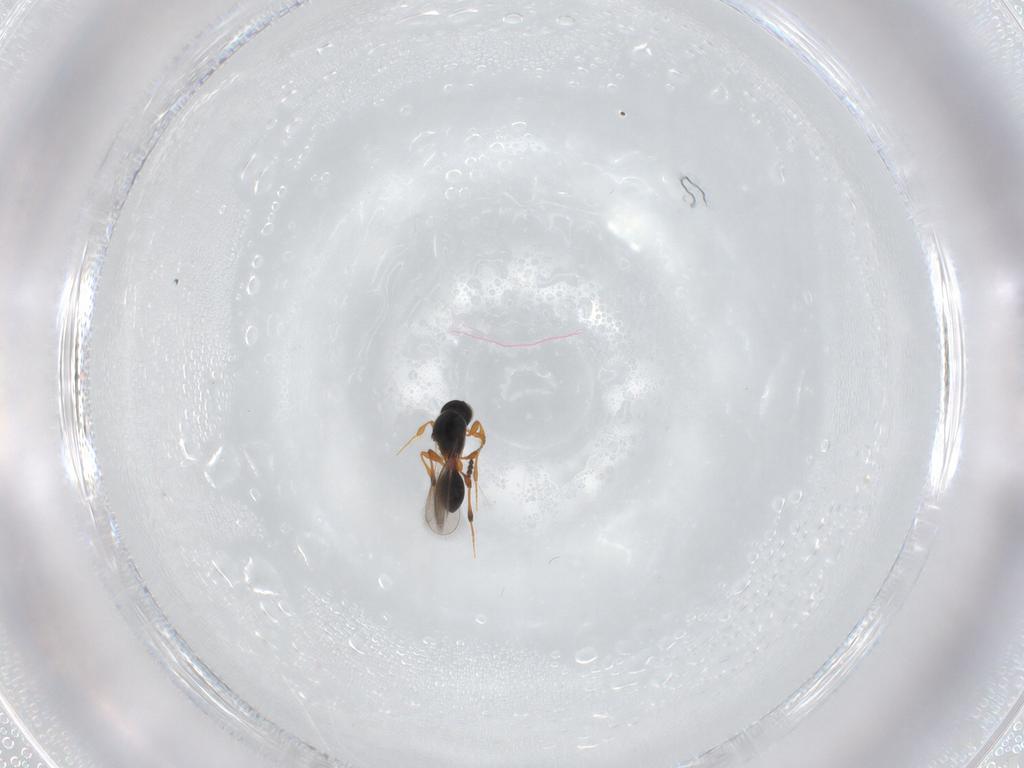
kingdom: Animalia
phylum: Arthropoda
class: Insecta
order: Hymenoptera
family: Platygastridae
